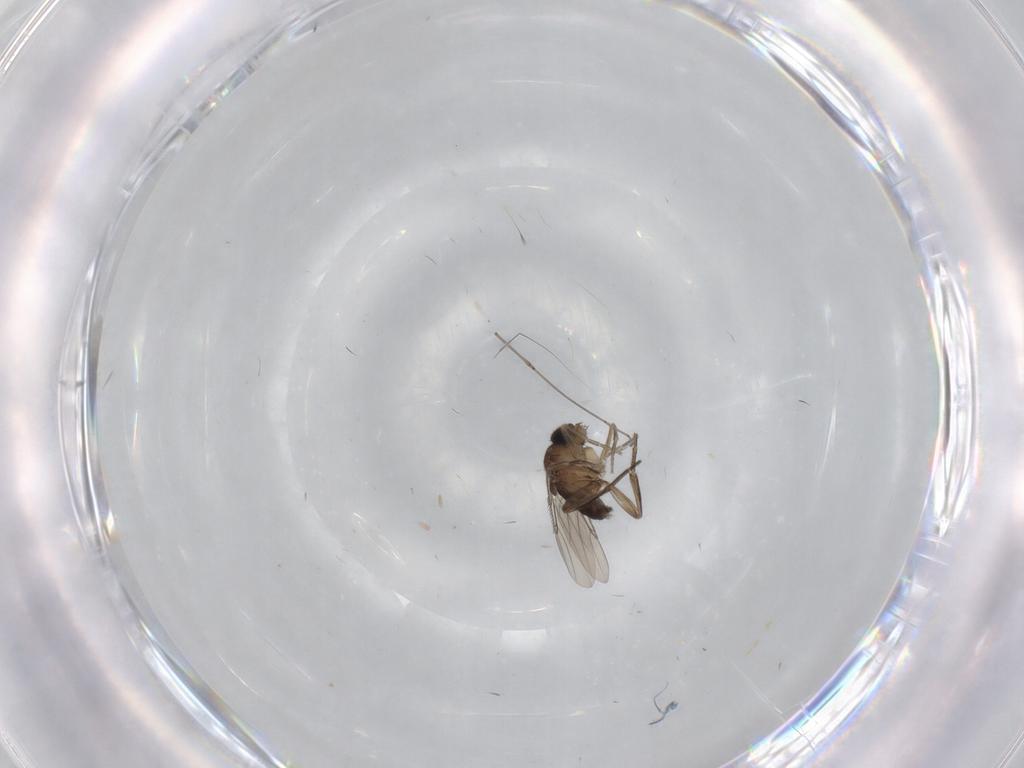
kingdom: Animalia
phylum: Arthropoda
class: Insecta
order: Diptera
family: Phoridae
